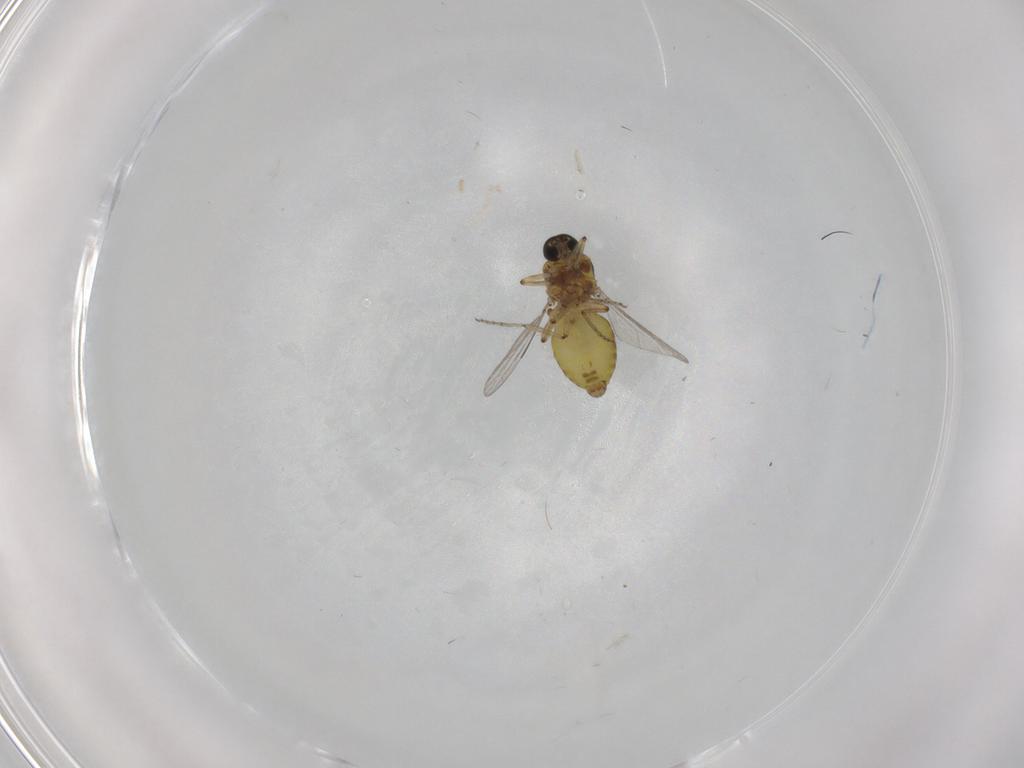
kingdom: Animalia
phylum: Arthropoda
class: Insecta
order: Diptera
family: Ceratopogonidae
